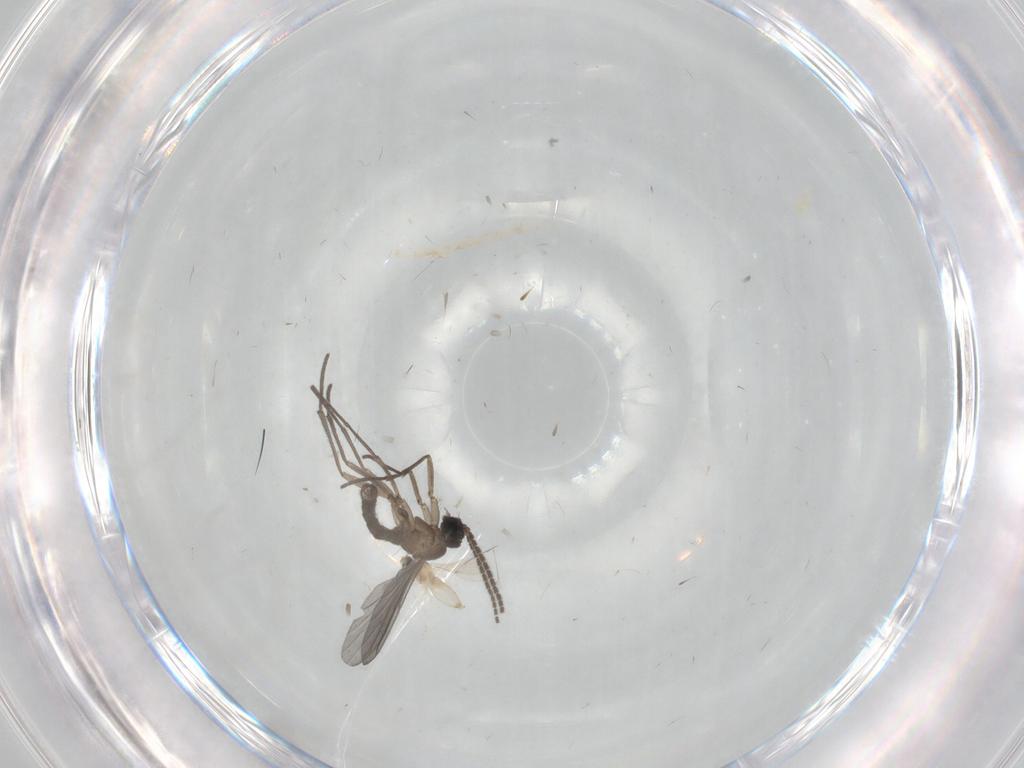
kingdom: Animalia
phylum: Arthropoda
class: Insecta
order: Diptera
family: Sciaridae
